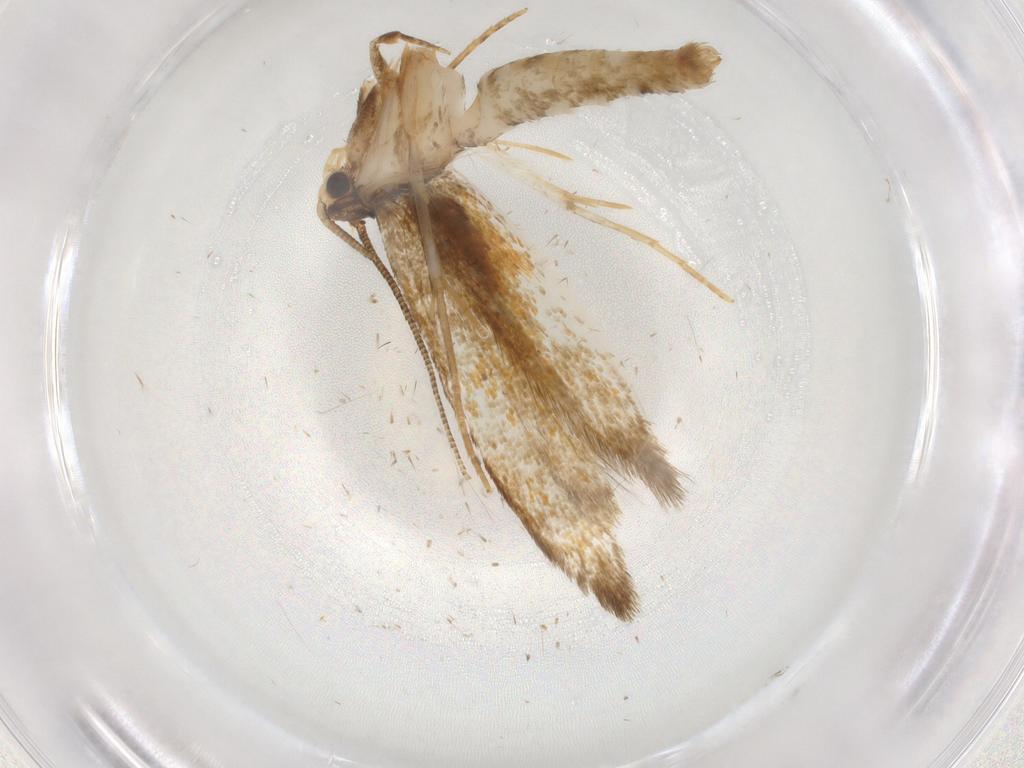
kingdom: Animalia
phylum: Arthropoda
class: Insecta
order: Lepidoptera
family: Tineidae
